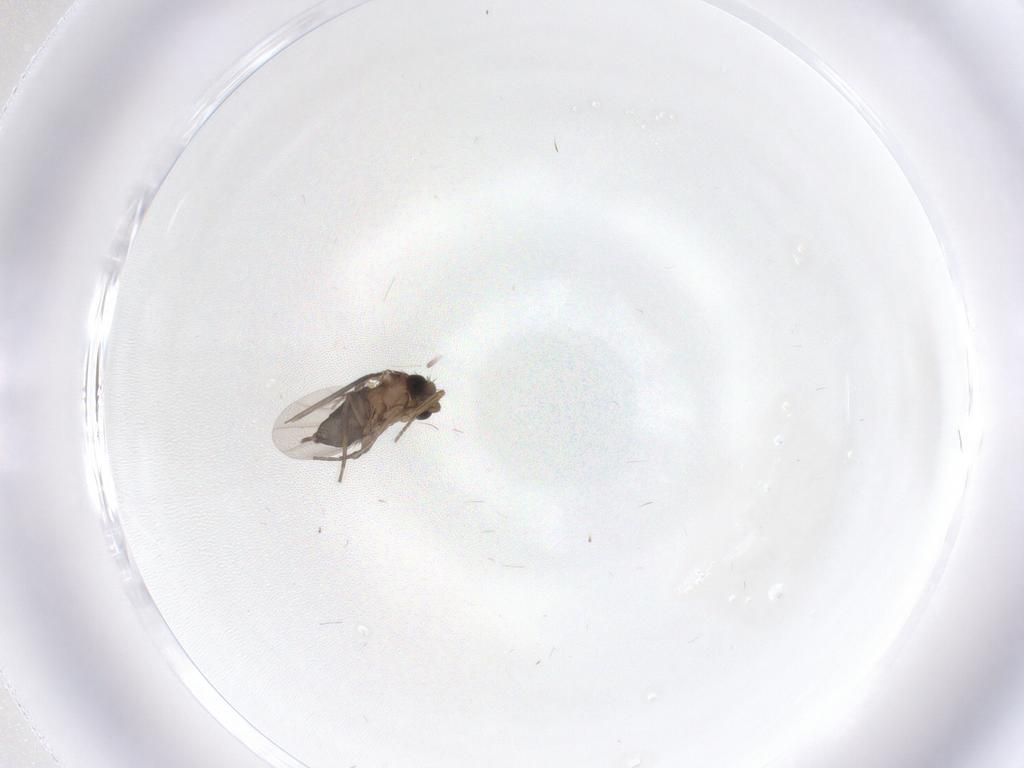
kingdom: Animalia
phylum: Arthropoda
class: Insecta
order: Diptera
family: Phoridae
